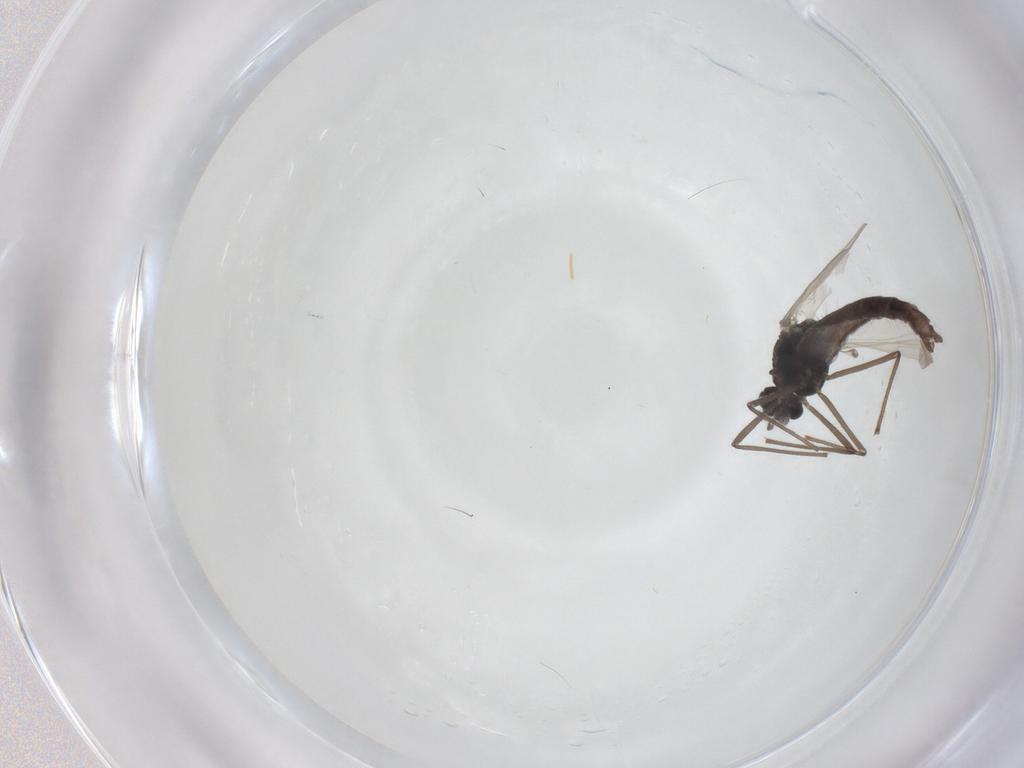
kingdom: Animalia
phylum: Arthropoda
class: Insecta
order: Diptera
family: Chironomidae
